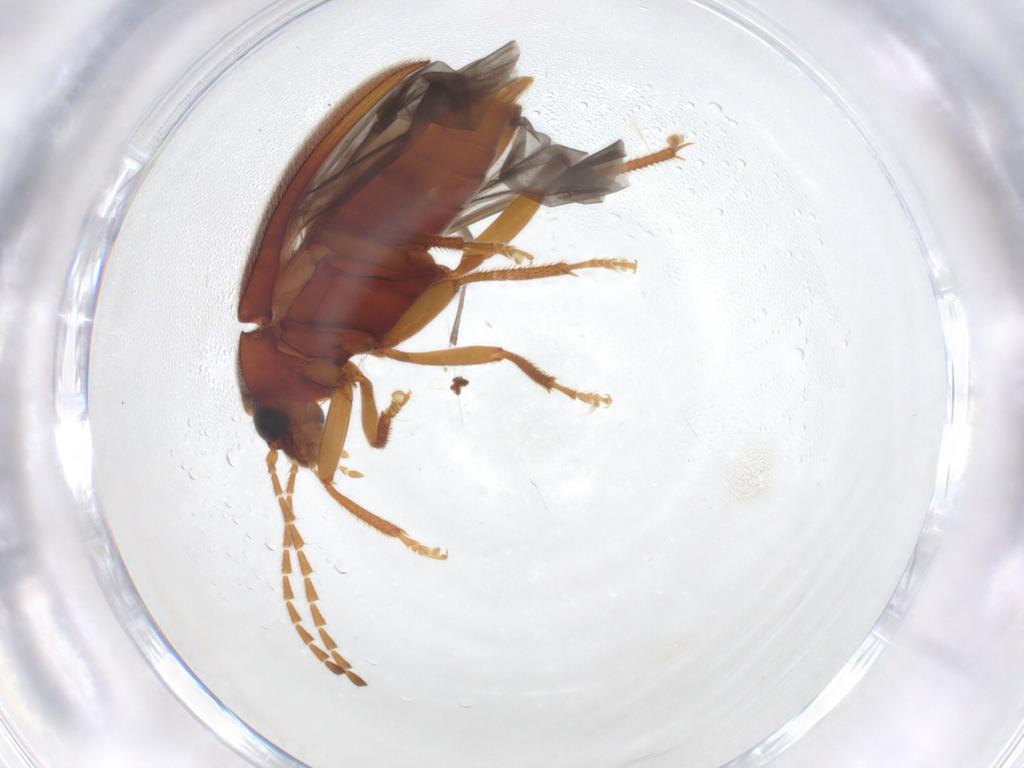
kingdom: Animalia
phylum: Arthropoda
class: Insecta
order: Coleoptera
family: Ptilodactylidae
